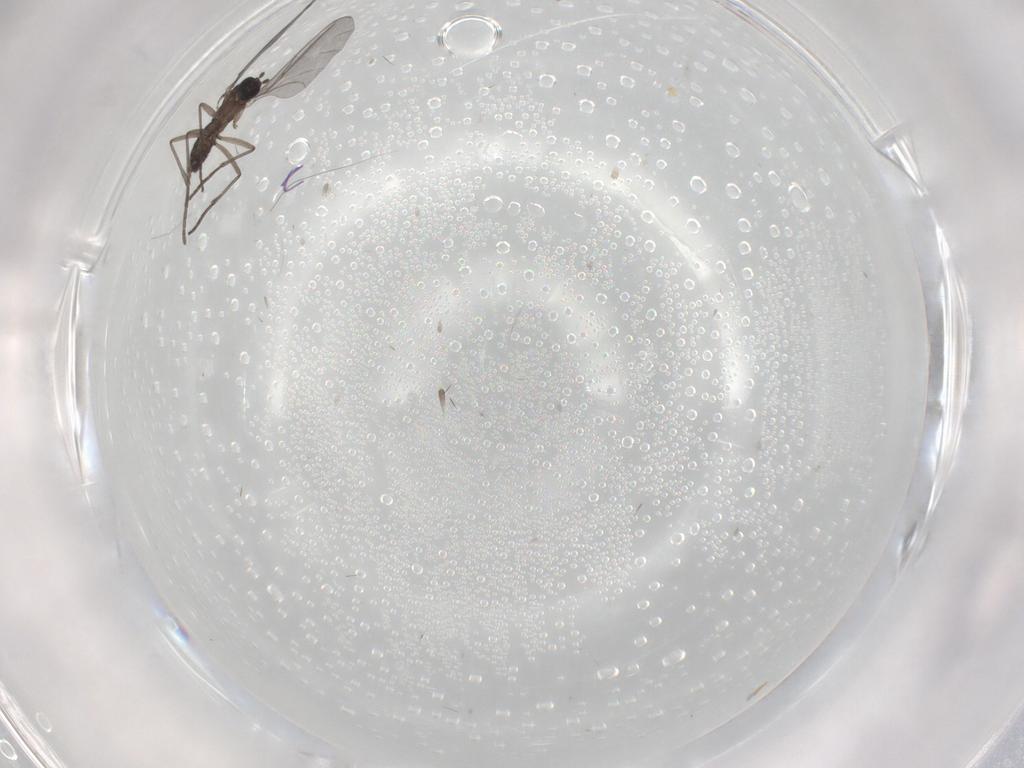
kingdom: Animalia
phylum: Arthropoda
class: Insecta
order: Diptera
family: Sciaridae
